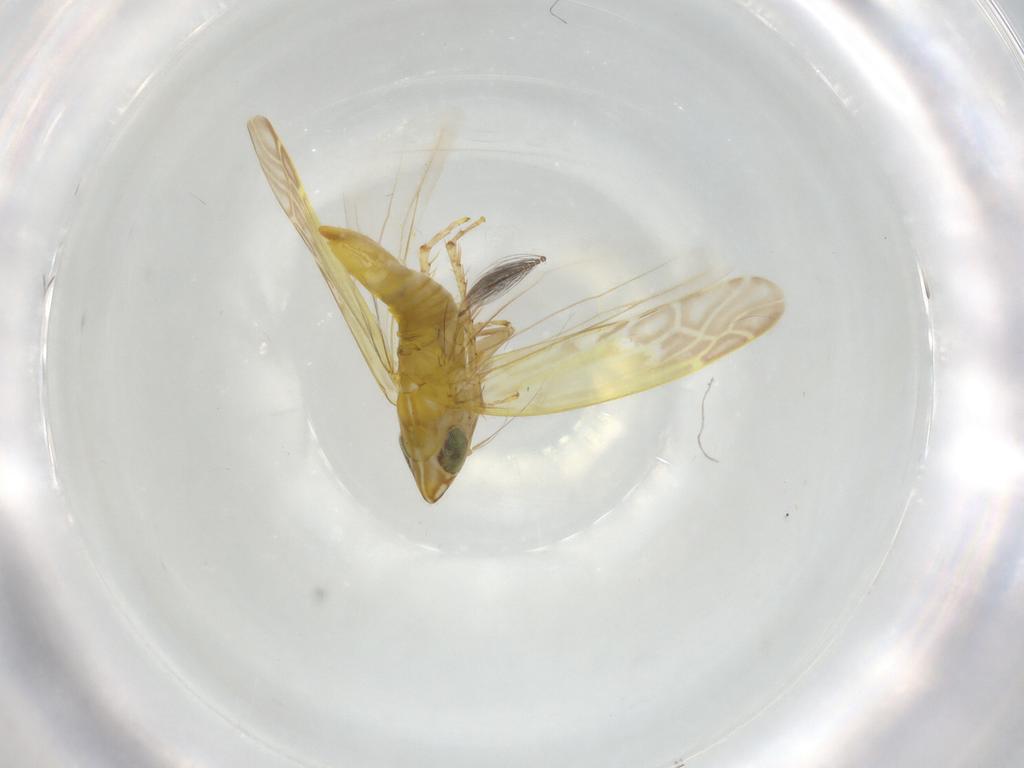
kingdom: Animalia
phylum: Arthropoda
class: Insecta
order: Hemiptera
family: Cicadellidae
